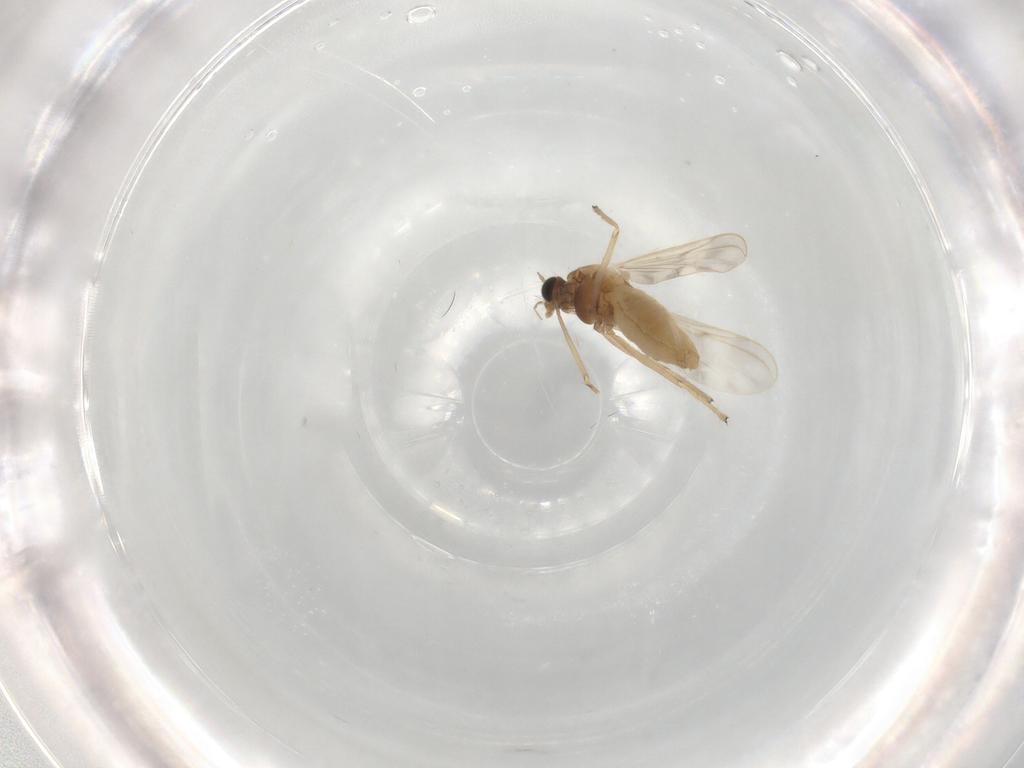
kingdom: Animalia
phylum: Arthropoda
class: Insecta
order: Diptera
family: Chironomidae
